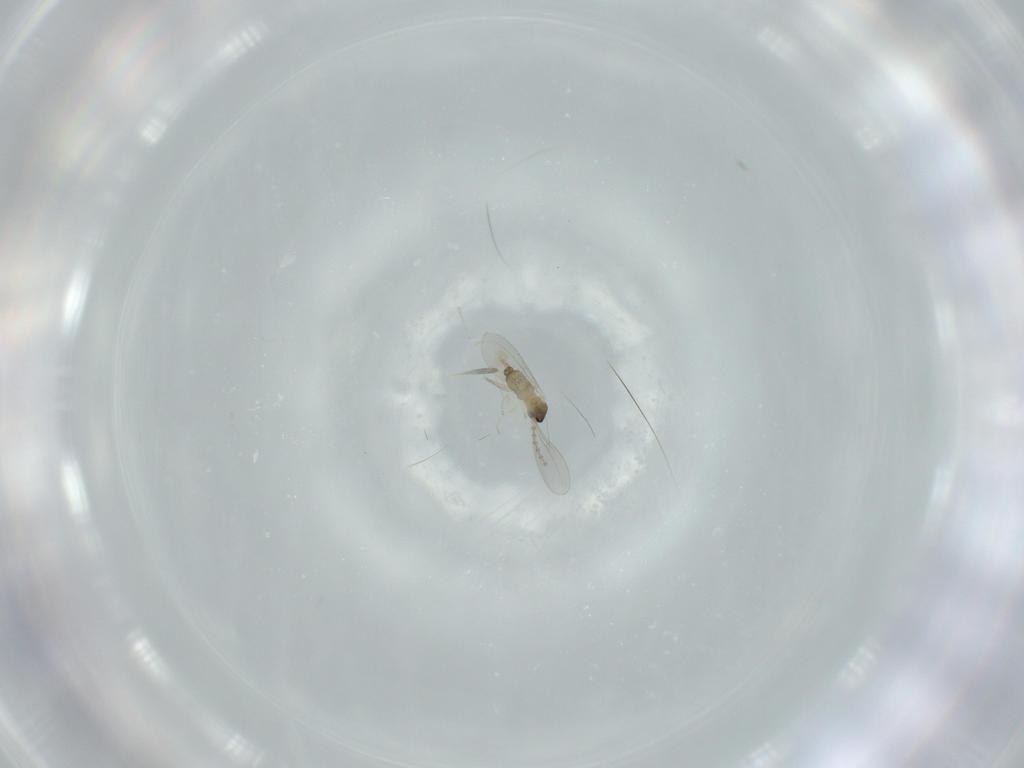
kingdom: Animalia
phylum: Arthropoda
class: Insecta
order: Diptera
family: Cecidomyiidae
